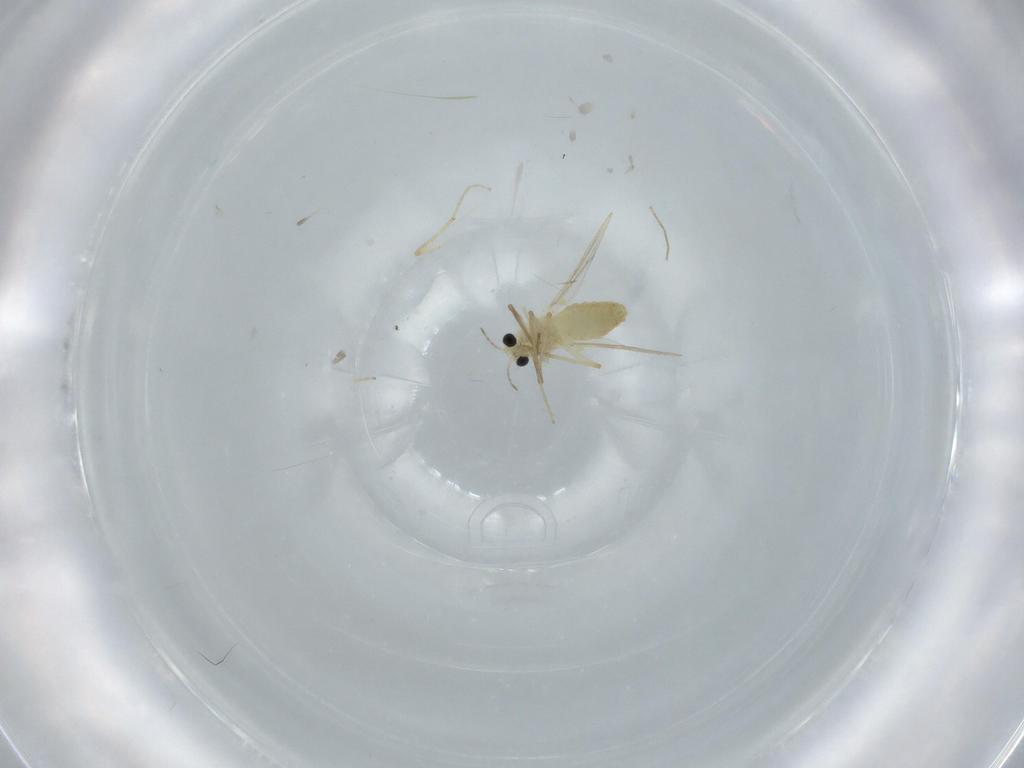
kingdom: Animalia
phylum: Arthropoda
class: Insecta
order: Diptera
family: Chironomidae
